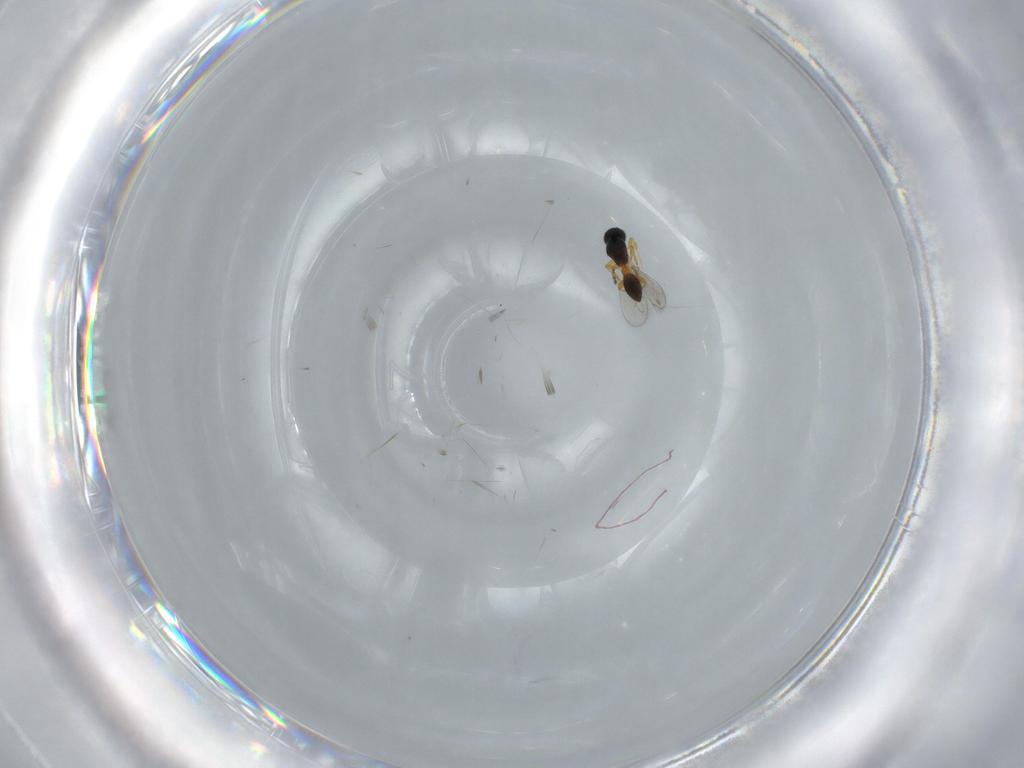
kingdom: Animalia
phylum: Arthropoda
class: Insecta
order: Hymenoptera
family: Platygastridae
